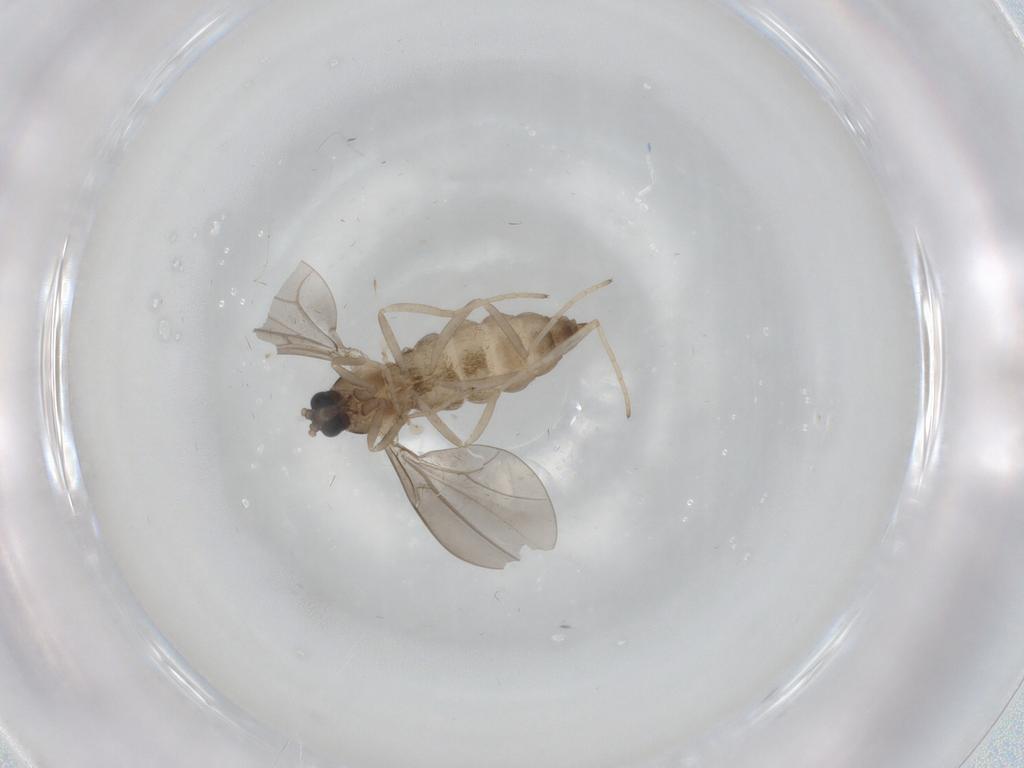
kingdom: Animalia
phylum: Arthropoda
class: Insecta
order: Diptera
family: Cecidomyiidae
